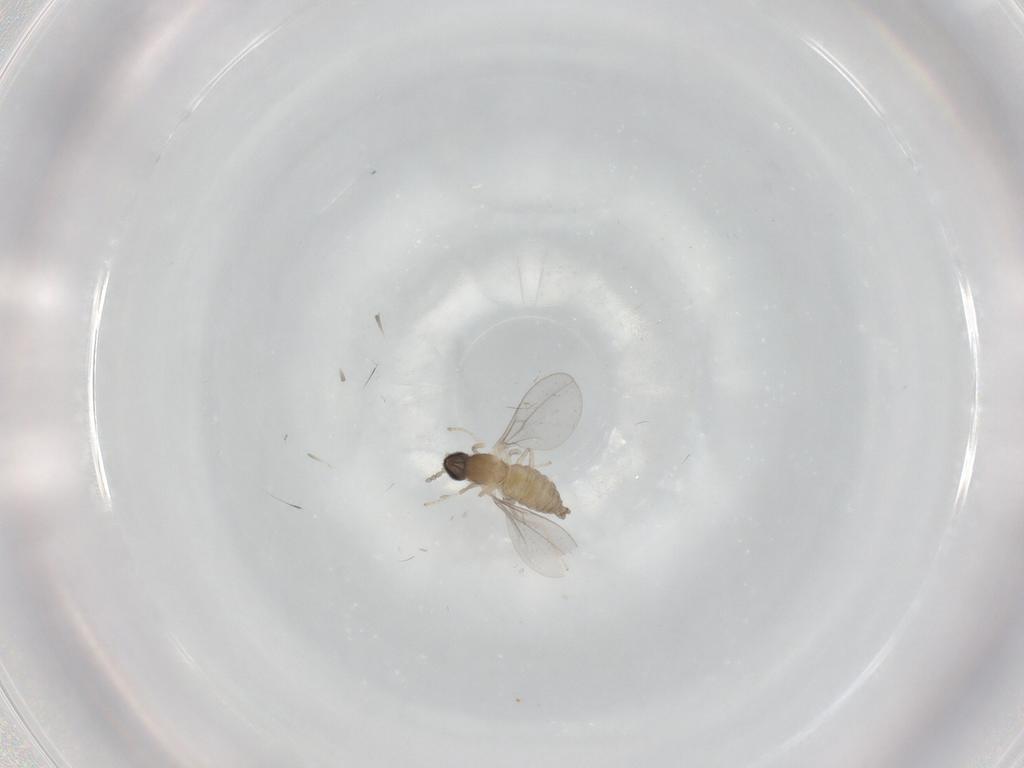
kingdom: Animalia
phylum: Arthropoda
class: Insecta
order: Diptera
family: Cecidomyiidae
